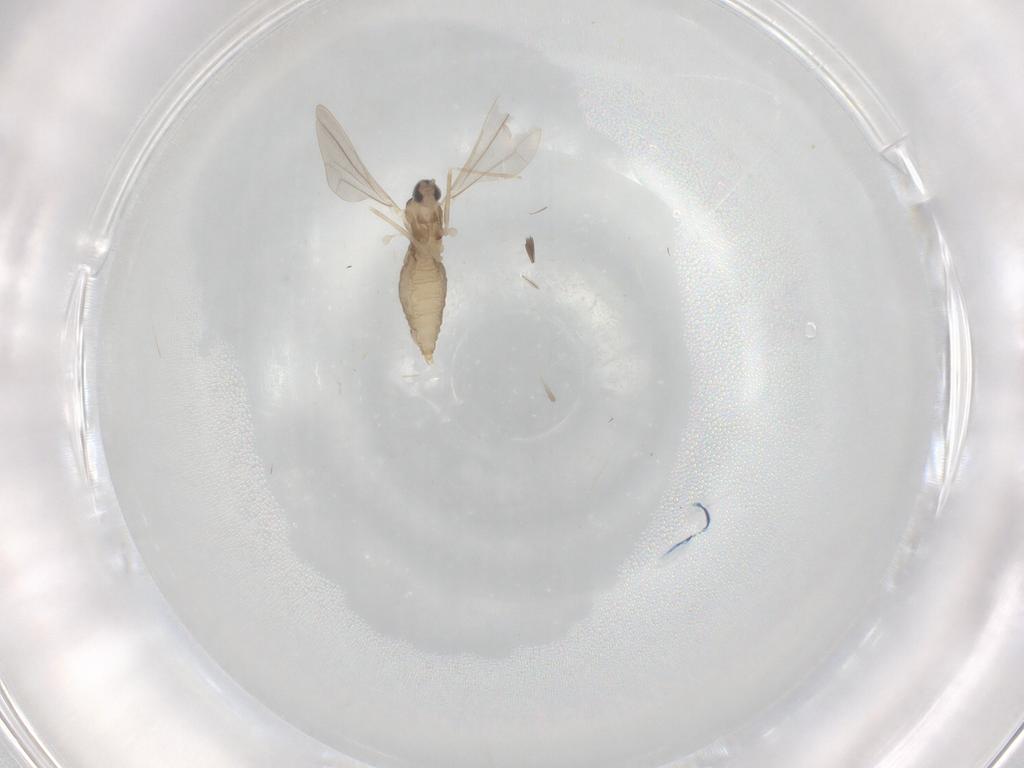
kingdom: Animalia
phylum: Arthropoda
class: Insecta
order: Diptera
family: Cecidomyiidae
